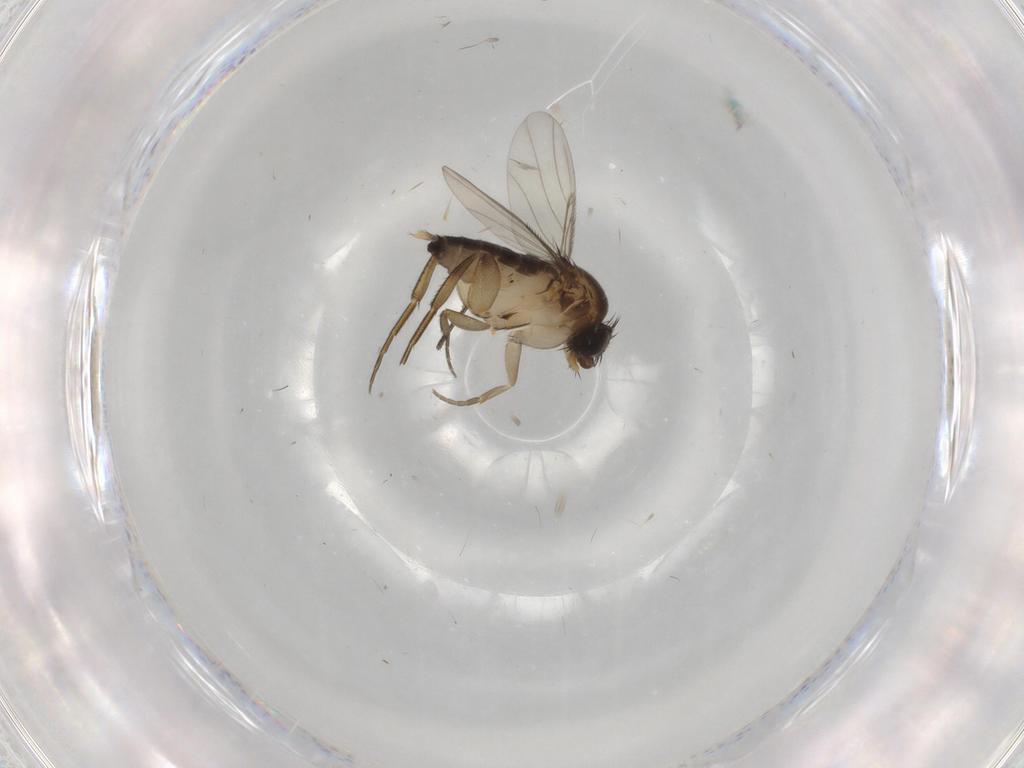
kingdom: Animalia
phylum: Arthropoda
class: Insecta
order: Diptera
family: Phoridae
